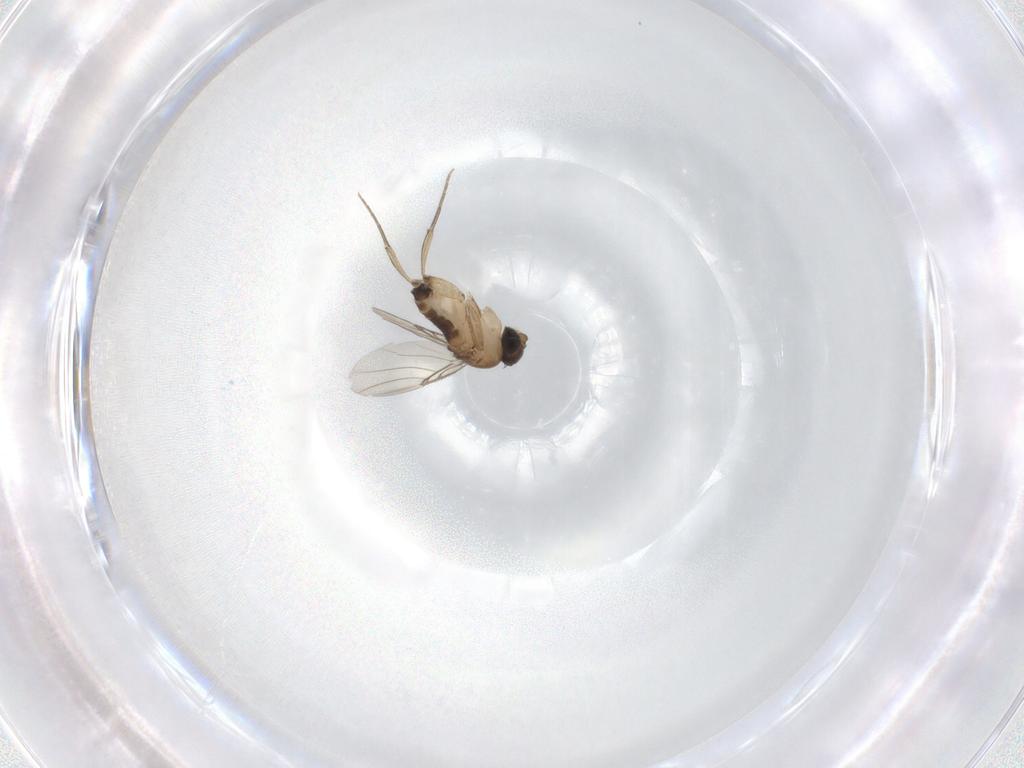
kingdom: Animalia
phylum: Arthropoda
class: Insecta
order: Diptera
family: Phoridae
